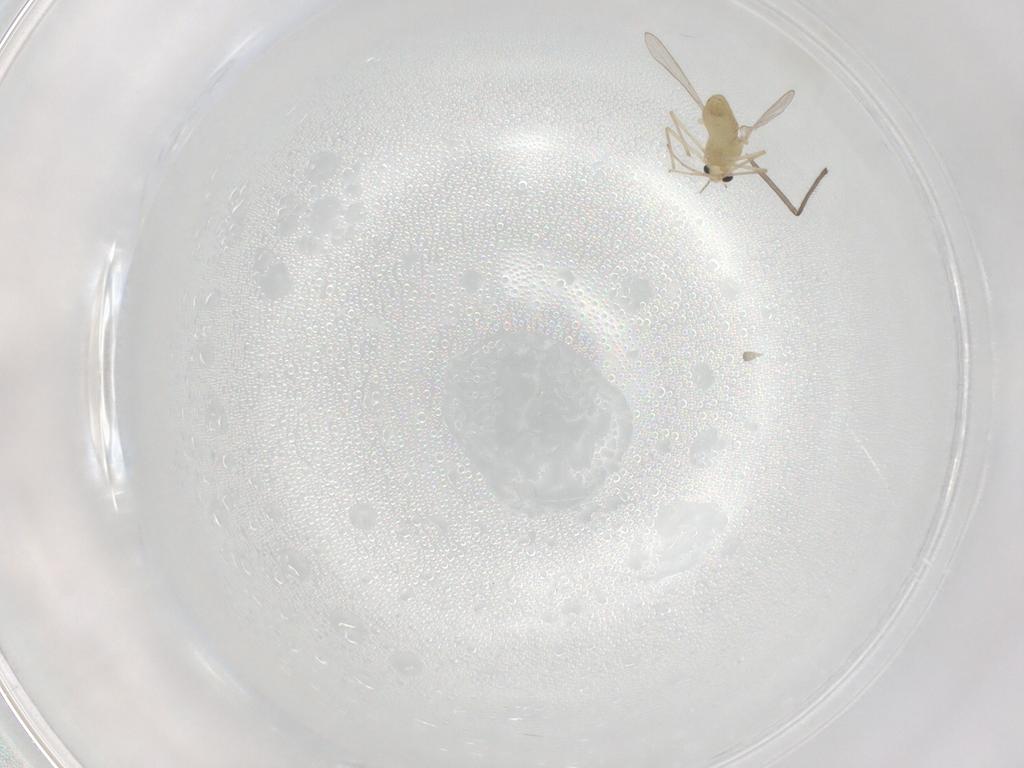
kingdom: Animalia
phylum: Arthropoda
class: Insecta
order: Diptera
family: Chironomidae
